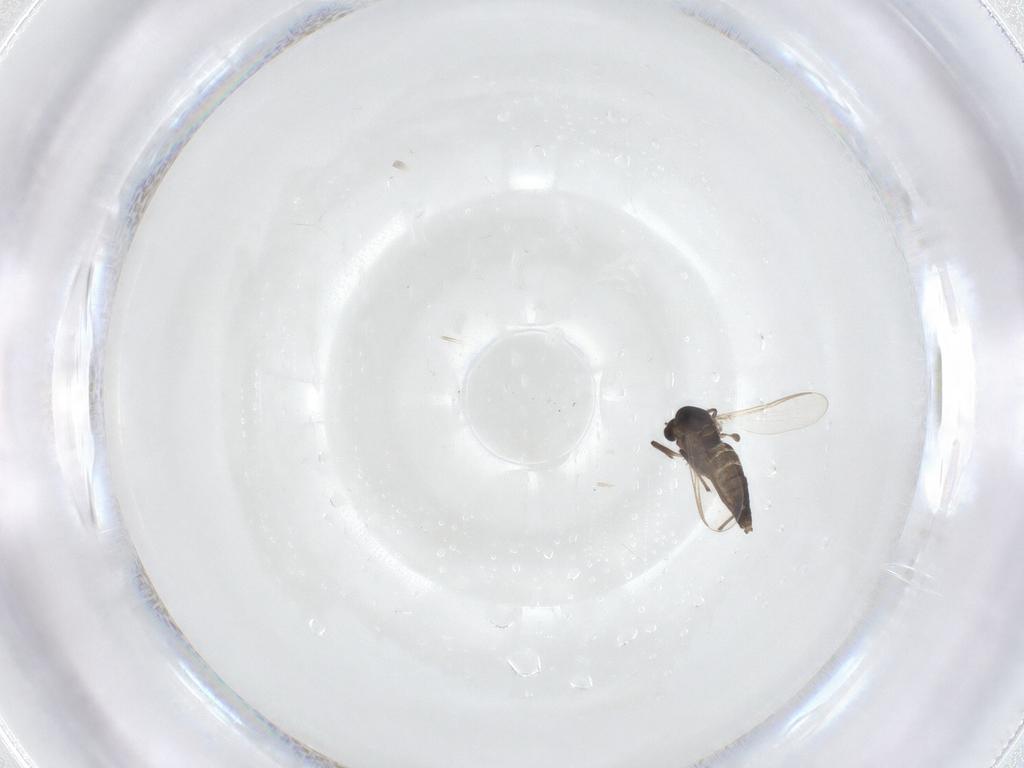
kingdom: Animalia
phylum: Arthropoda
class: Insecta
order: Diptera
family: Chironomidae
